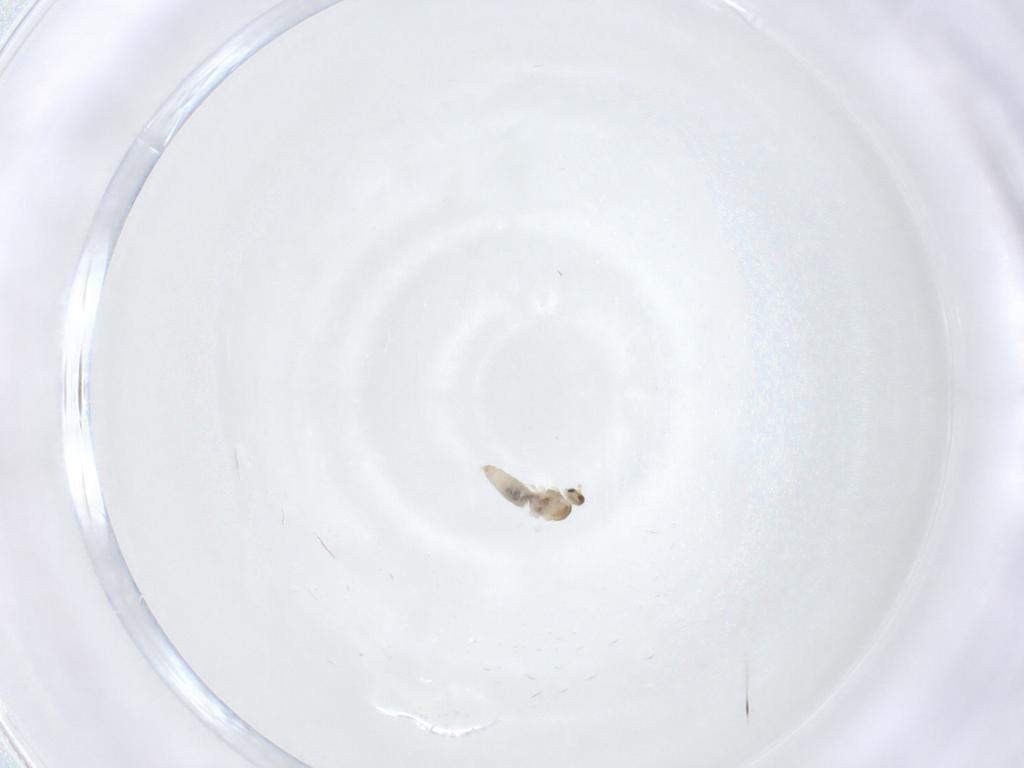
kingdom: Animalia
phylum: Arthropoda
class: Insecta
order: Diptera
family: Cecidomyiidae
